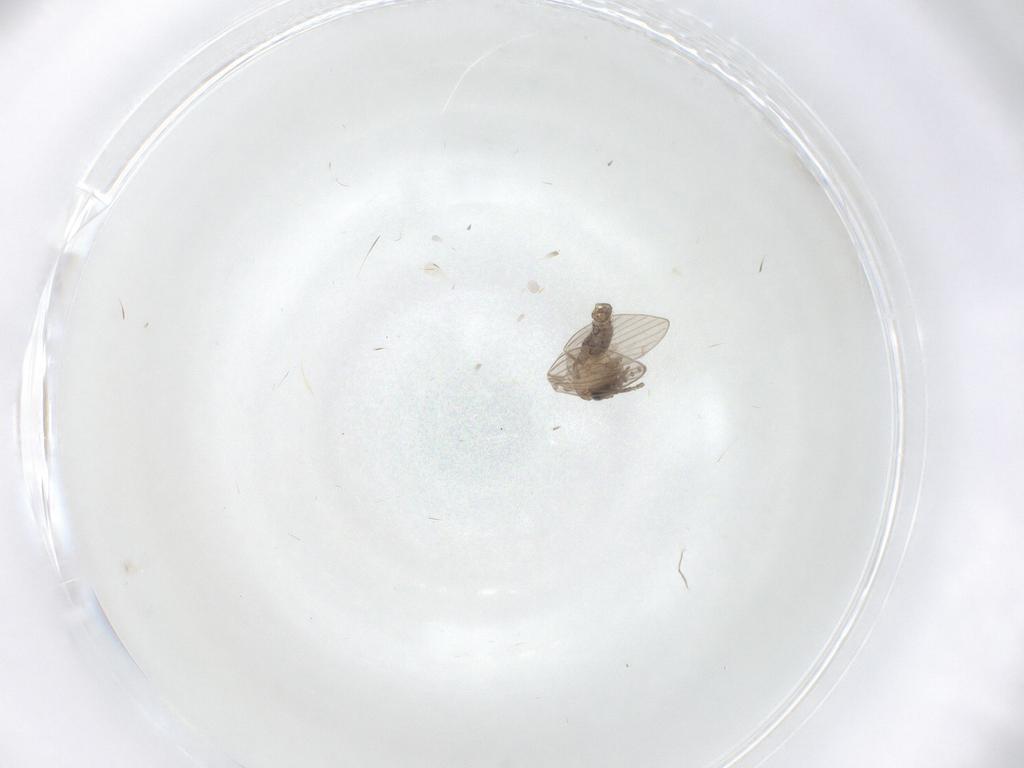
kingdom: Animalia
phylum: Arthropoda
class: Insecta
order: Diptera
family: Psychodidae
